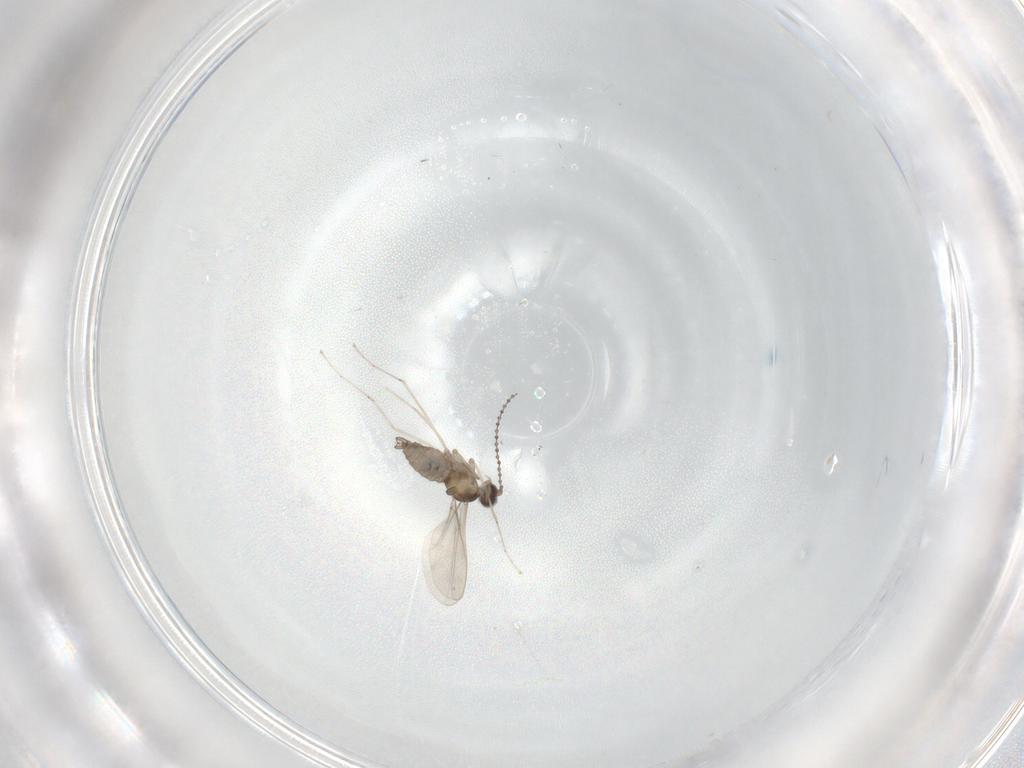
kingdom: Animalia
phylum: Arthropoda
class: Insecta
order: Diptera
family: Cecidomyiidae
